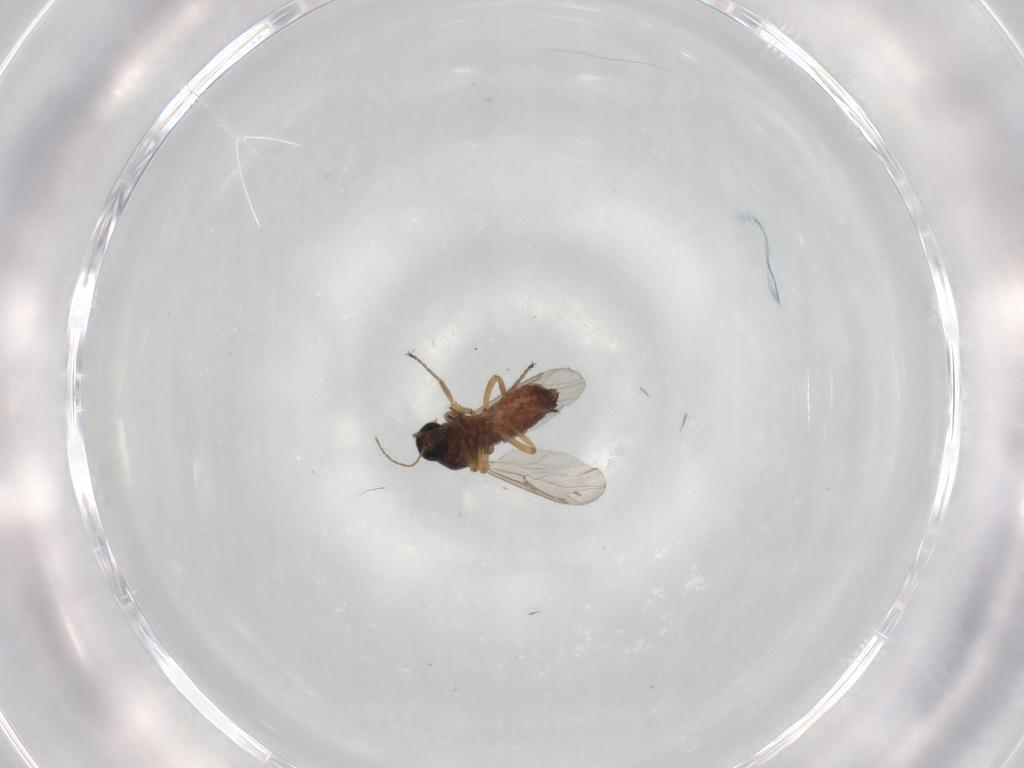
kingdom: Animalia
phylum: Arthropoda
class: Insecta
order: Diptera
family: Ceratopogonidae
